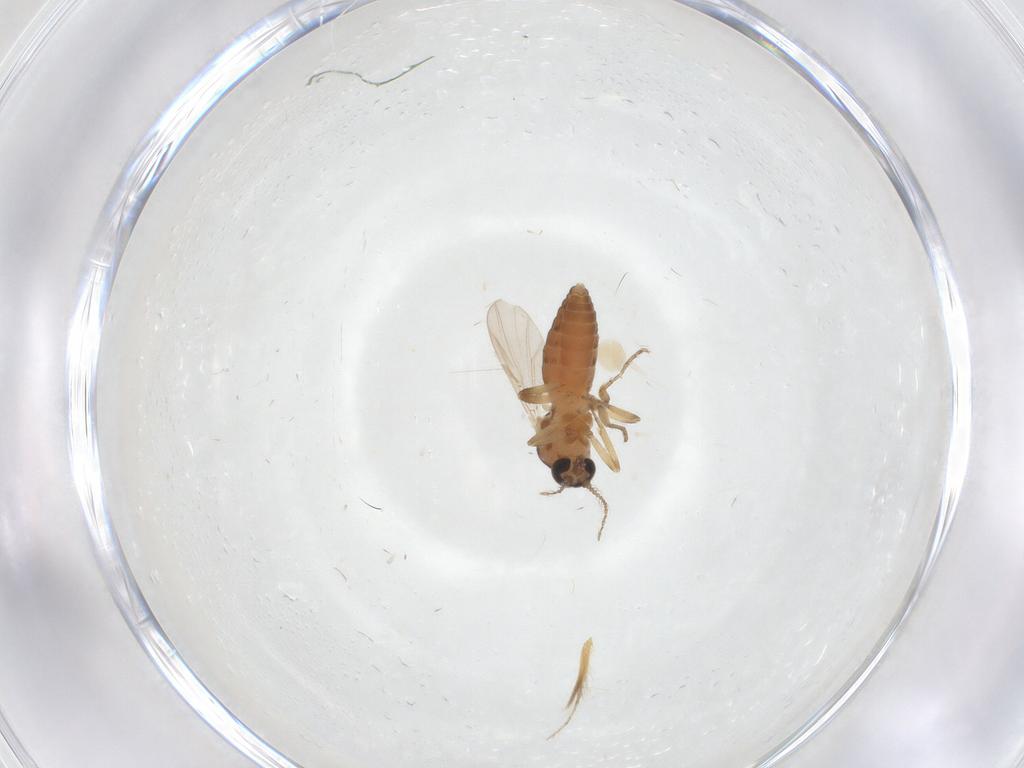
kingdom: Animalia
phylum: Arthropoda
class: Insecta
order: Diptera
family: Ceratopogonidae
